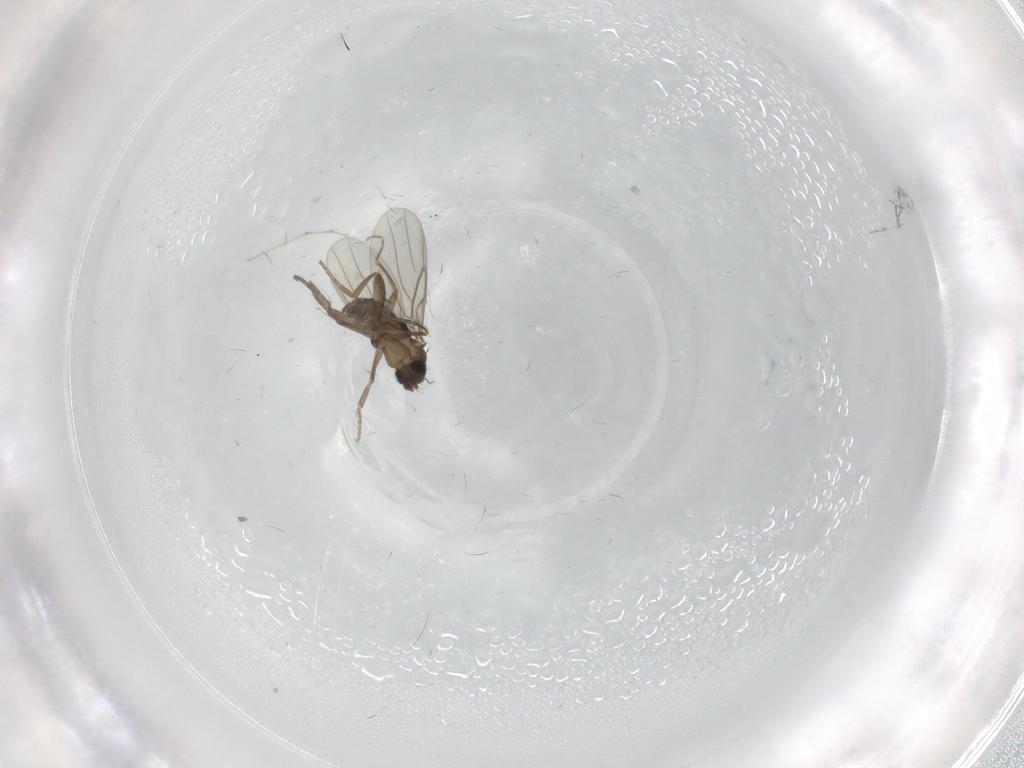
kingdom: Animalia
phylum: Arthropoda
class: Insecta
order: Diptera
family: Cecidomyiidae
